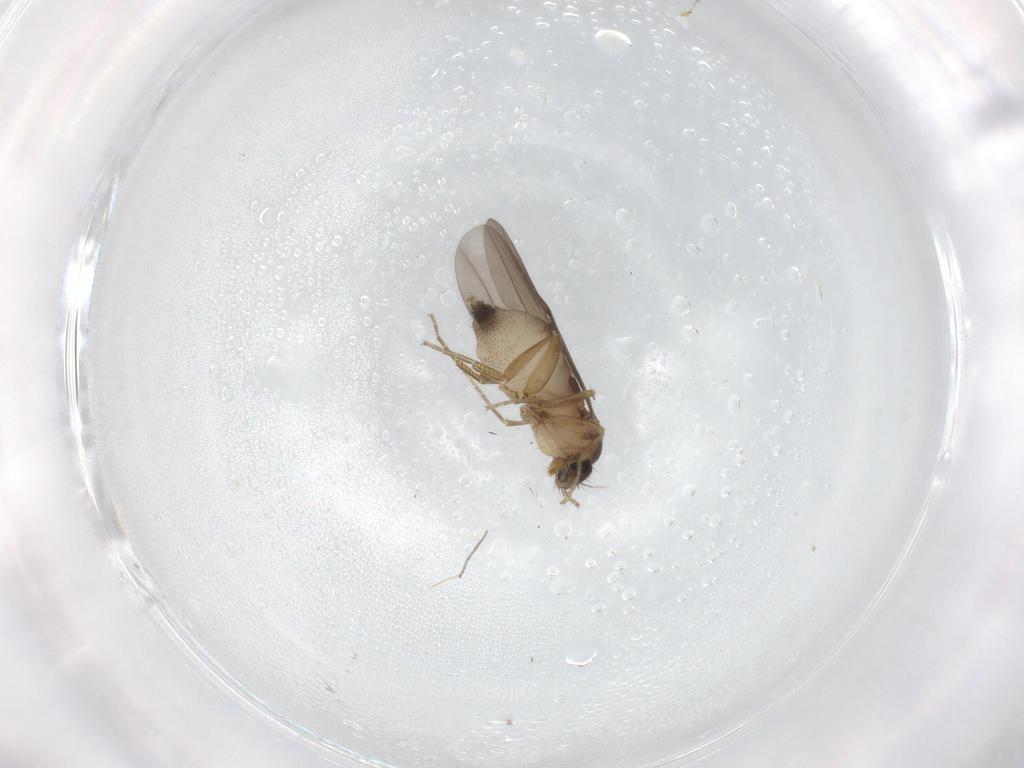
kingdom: Animalia
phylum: Arthropoda
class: Insecta
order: Diptera
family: Phoridae
